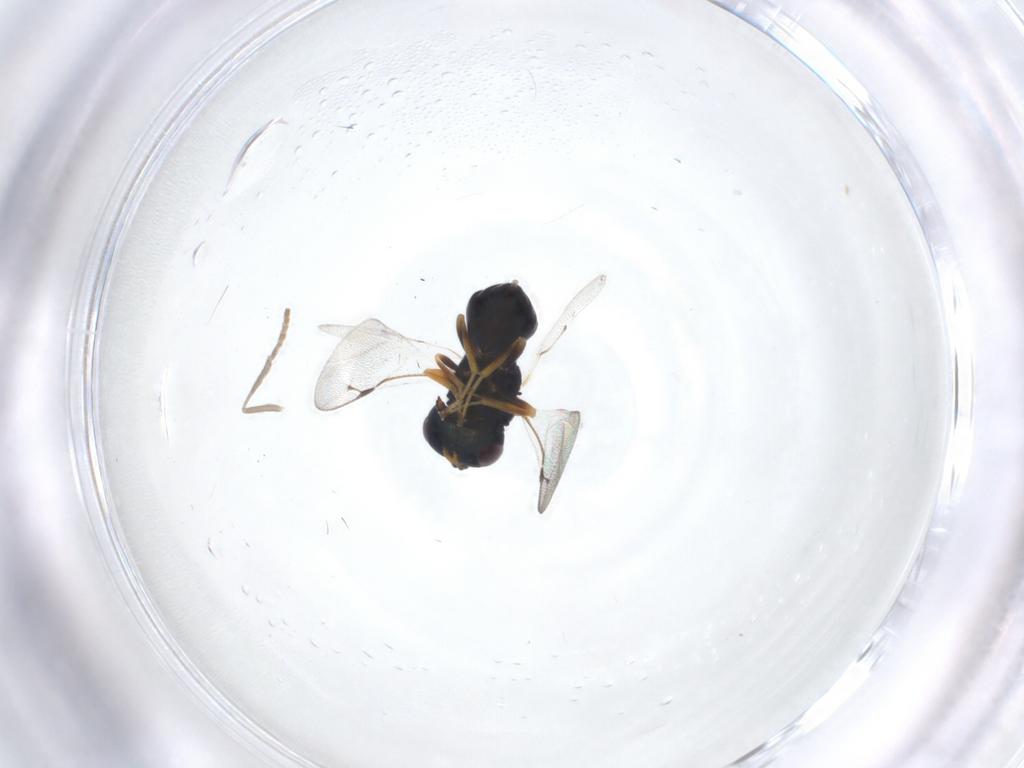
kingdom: Animalia
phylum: Arthropoda
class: Insecta
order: Hymenoptera
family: Pteromalidae
